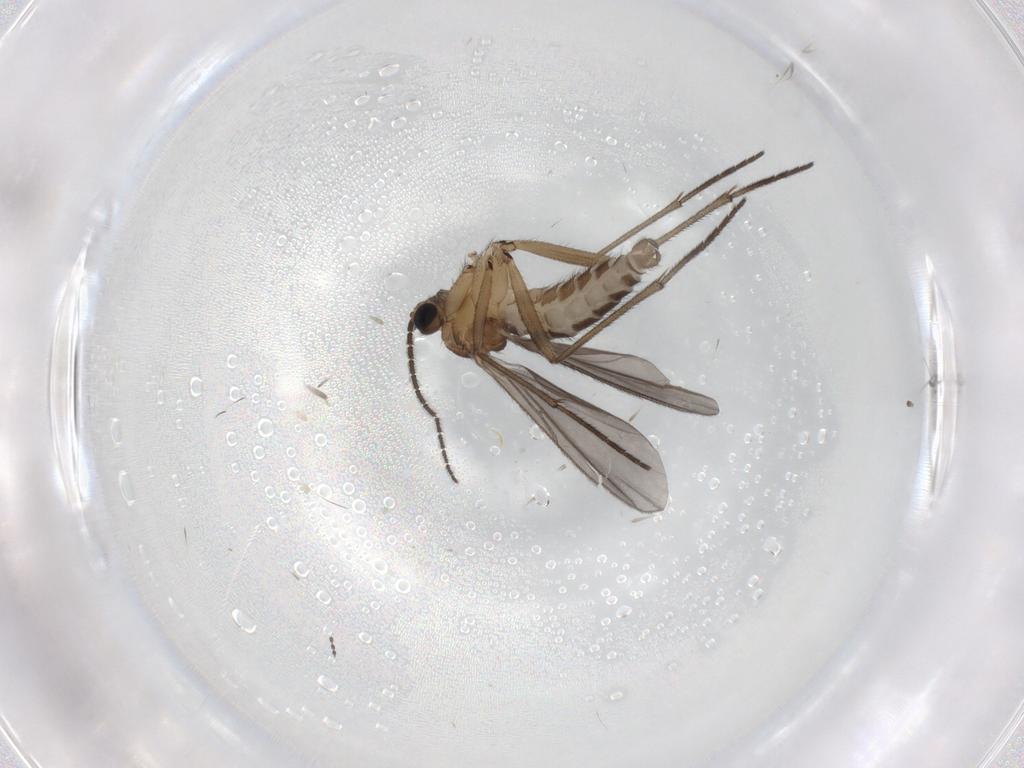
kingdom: Animalia
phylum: Arthropoda
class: Insecta
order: Diptera
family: Cecidomyiidae
